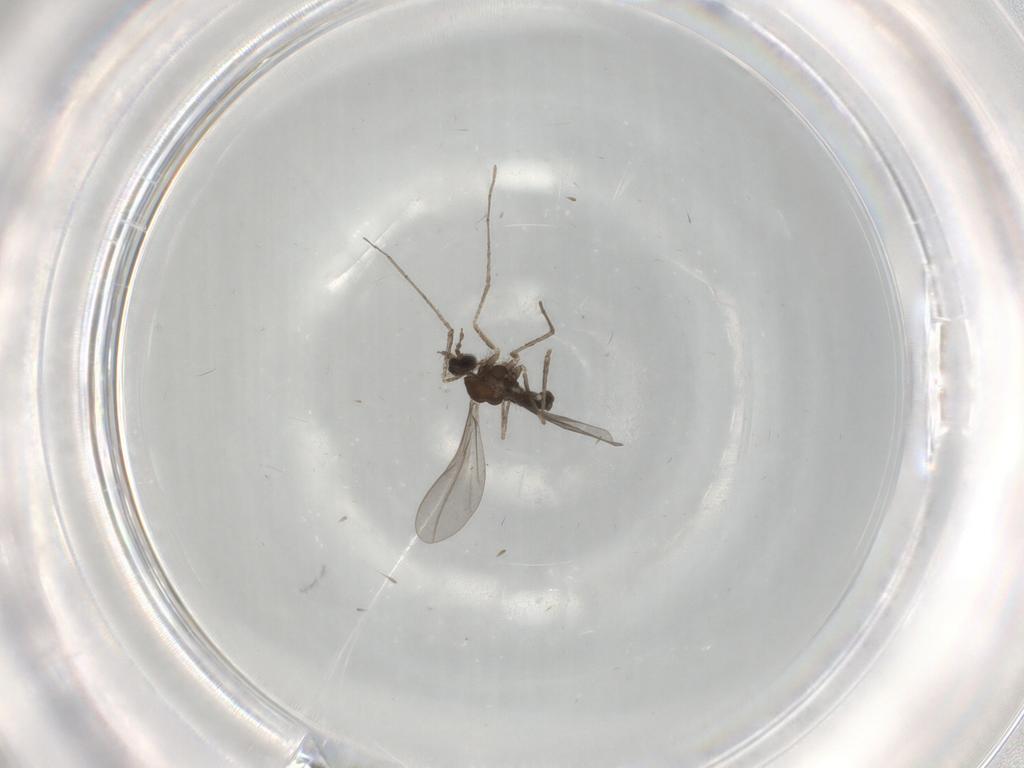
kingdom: Animalia
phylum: Arthropoda
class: Insecta
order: Diptera
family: Cecidomyiidae
